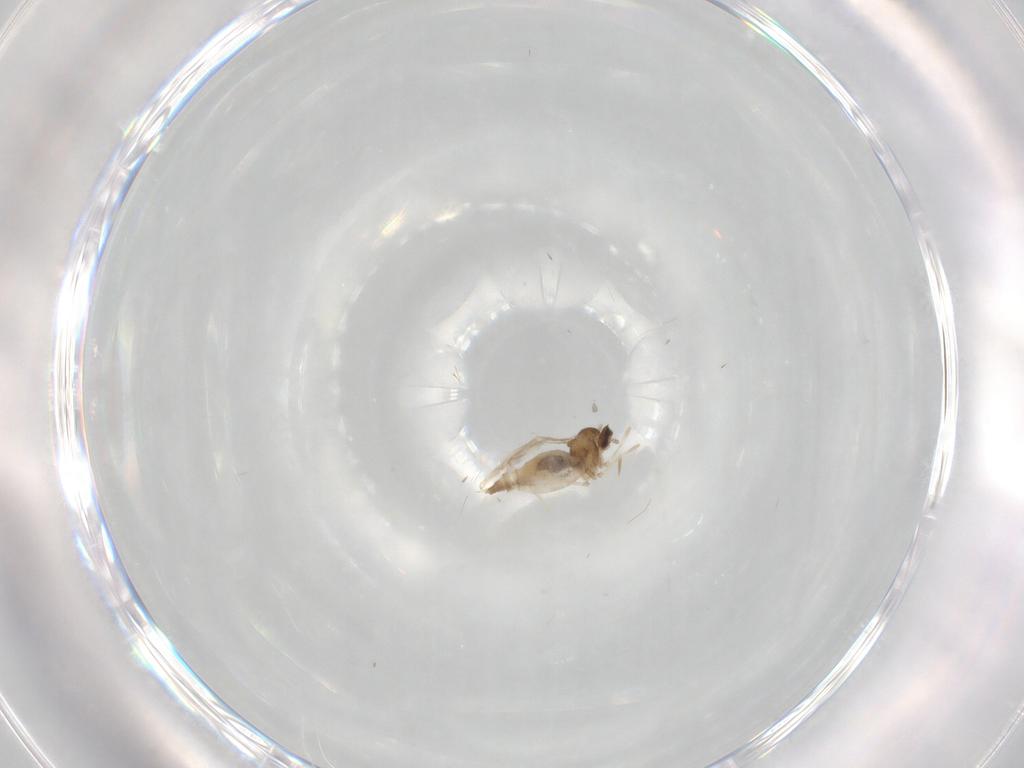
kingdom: Animalia
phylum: Arthropoda
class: Insecta
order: Diptera
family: Cecidomyiidae
